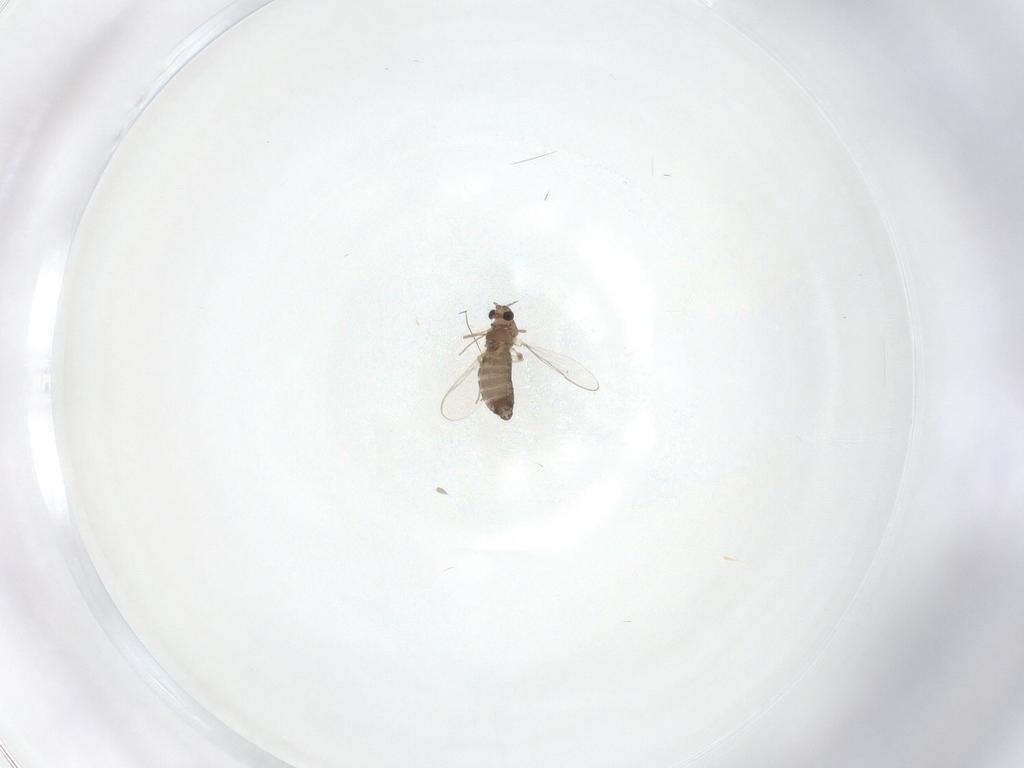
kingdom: Animalia
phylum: Arthropoda
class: Insecta
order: Diptera
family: Chironomidae
